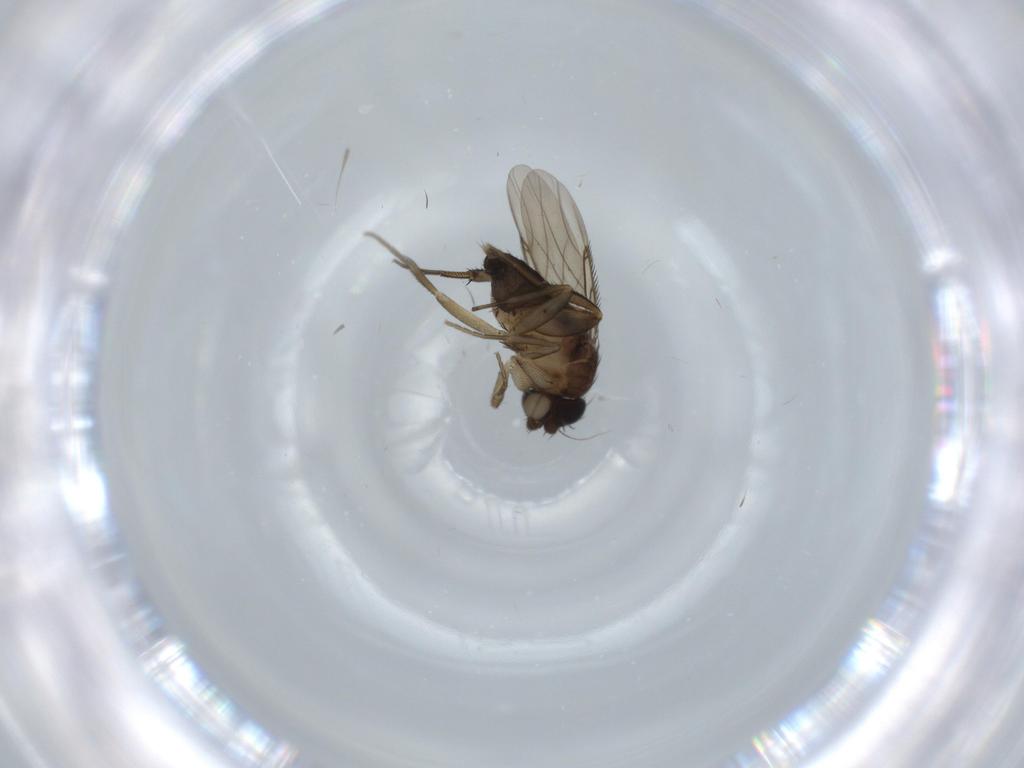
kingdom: Animalia
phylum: Arthropoda
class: Insecta
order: Diptera
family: Phoridae
